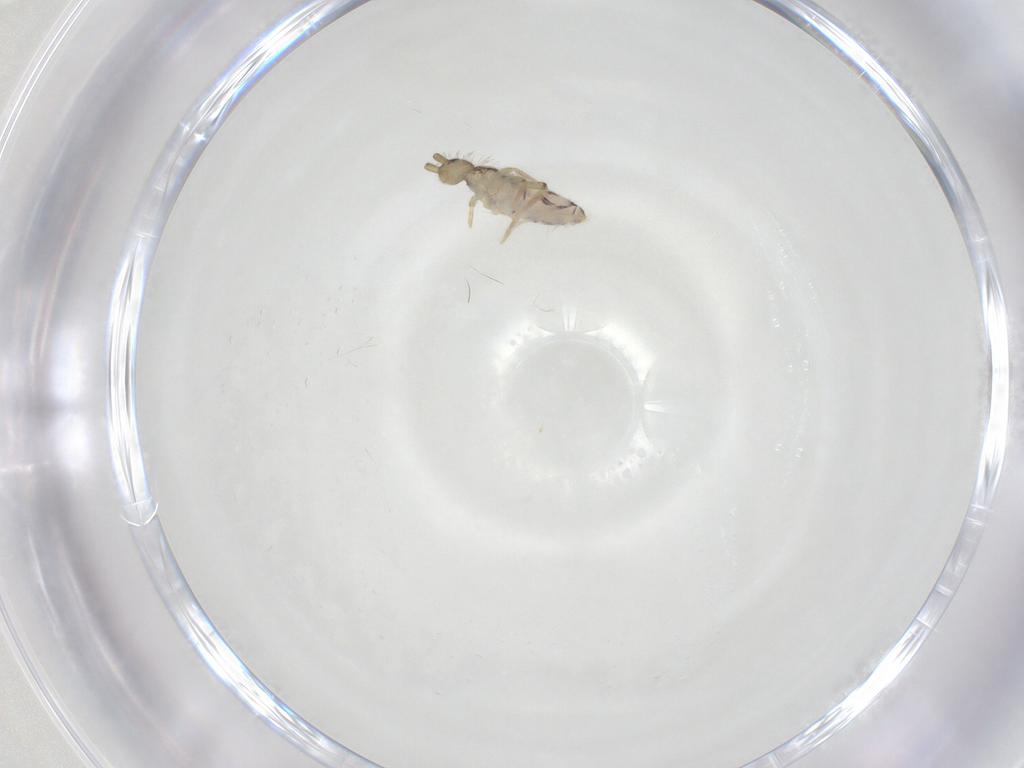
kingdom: Animalia
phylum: Arthropoda
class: Collembola
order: Entomobryomorpha
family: Entomobryidae
